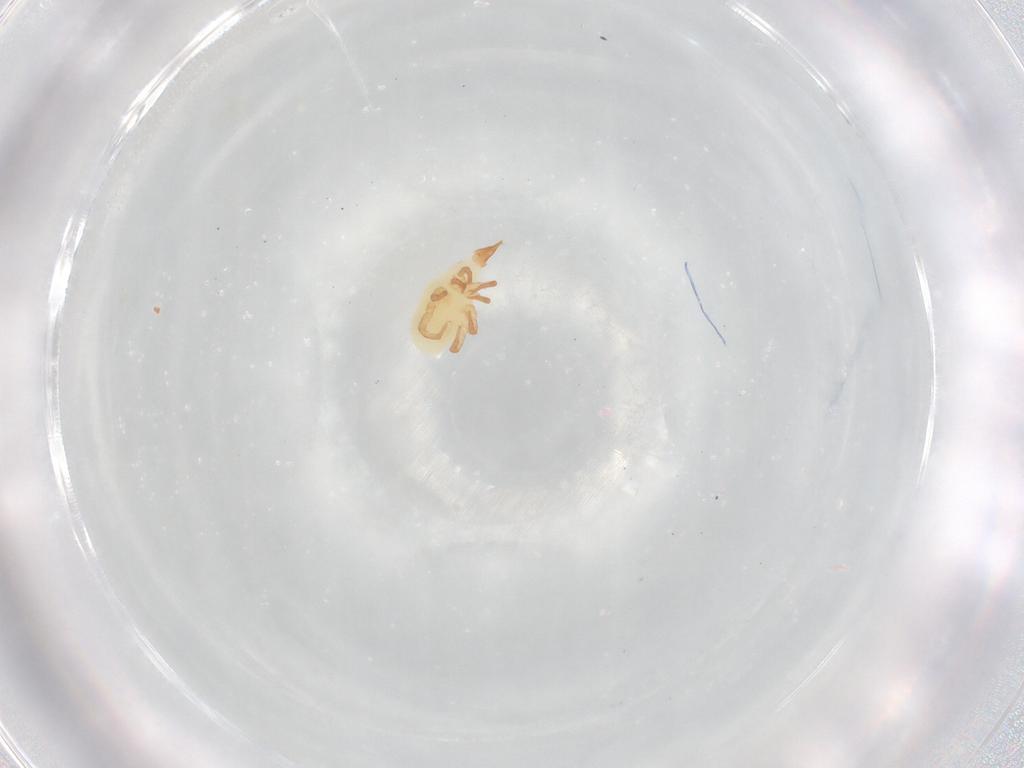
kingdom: Animalia
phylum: Arthropoda
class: Arachnida
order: Trombidiformes
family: Bdellidae
